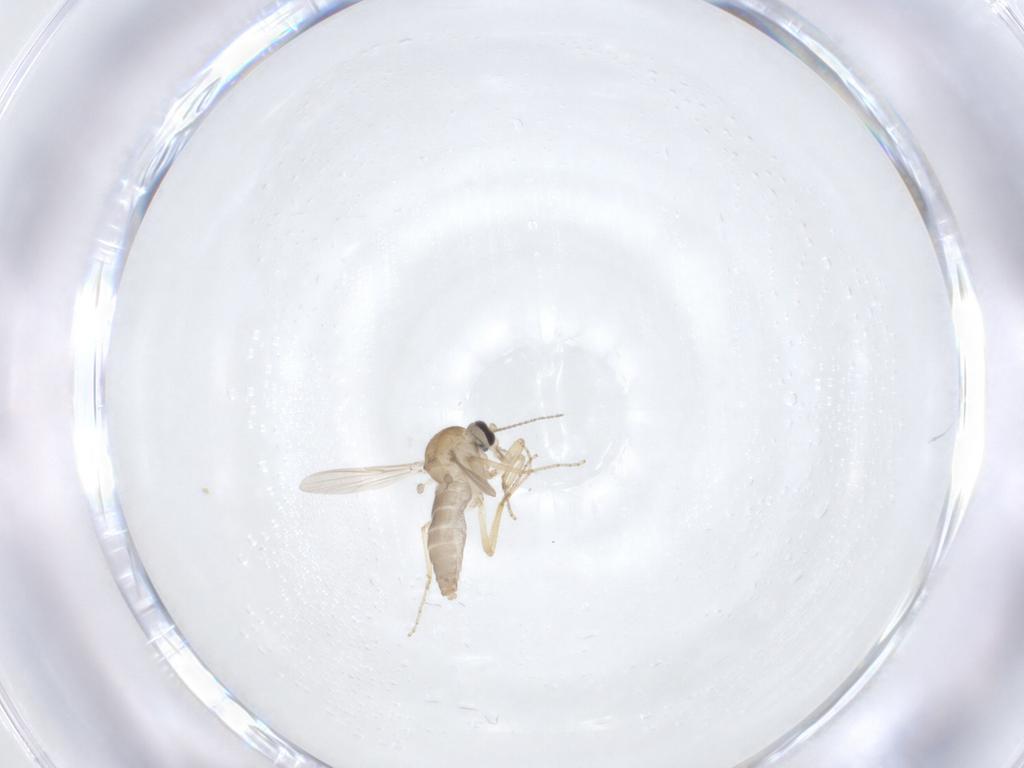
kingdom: Animalia
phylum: Arthropoda
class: Insecta
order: Diptera
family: Ceratopogonidae
